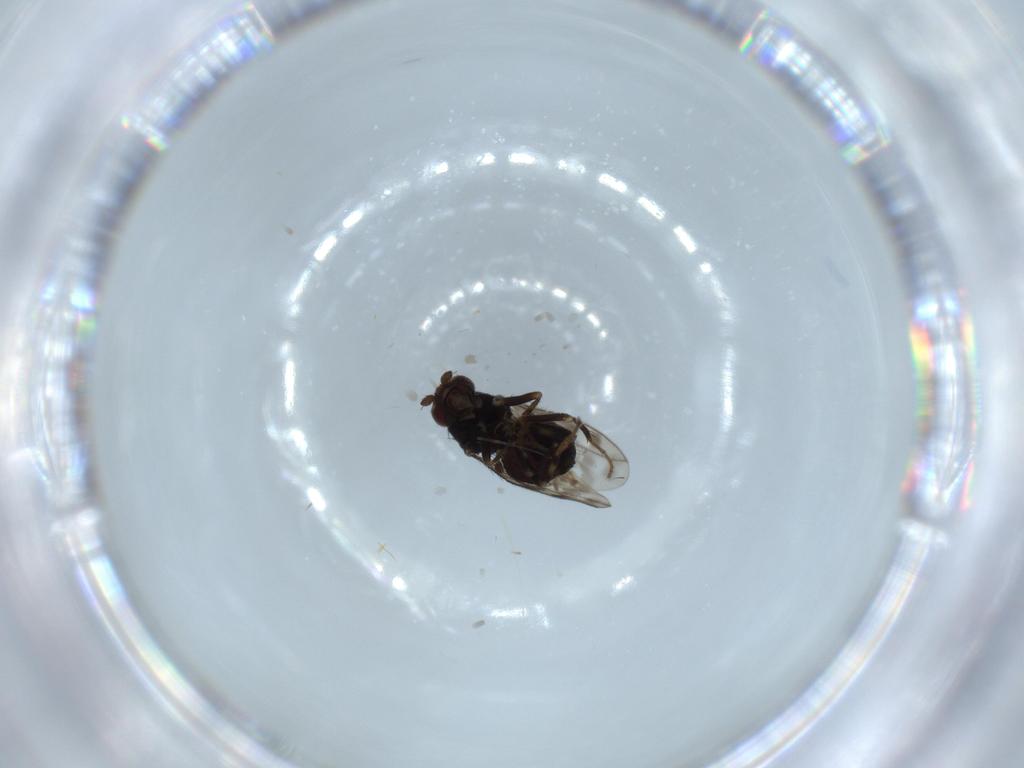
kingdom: Animalia
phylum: Arthropoda
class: Insecta
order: Diptera
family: Sphaeroceridae
